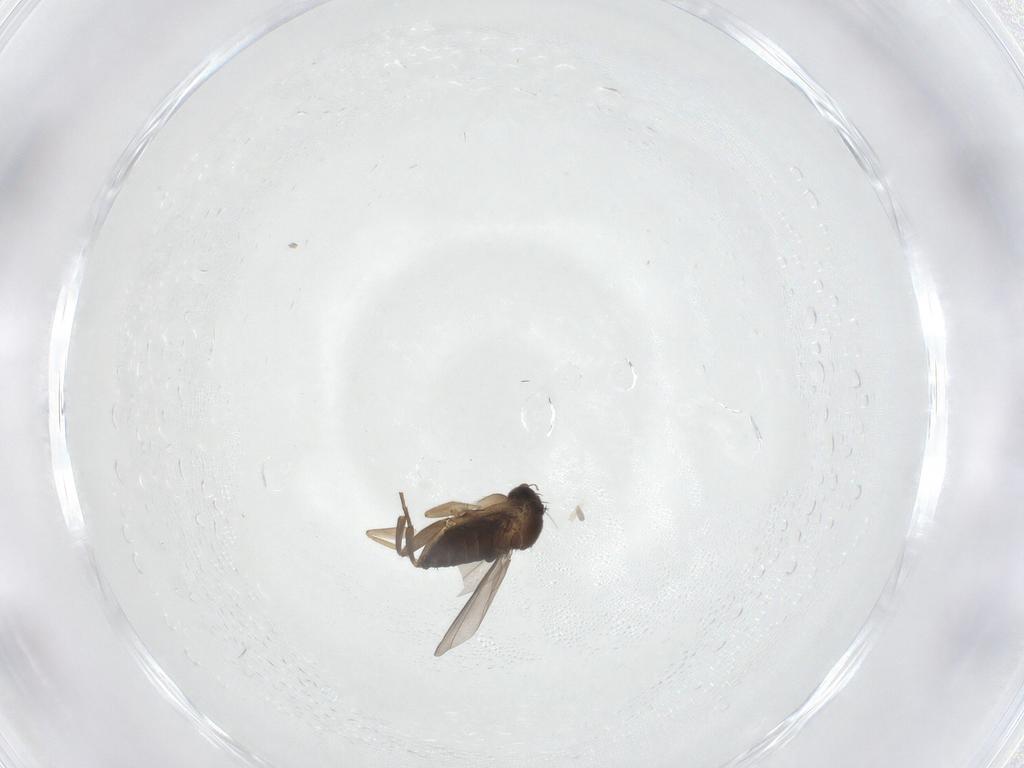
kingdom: Animalia
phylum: Arthropoda
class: Insecta
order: Diptera
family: Phoridae
